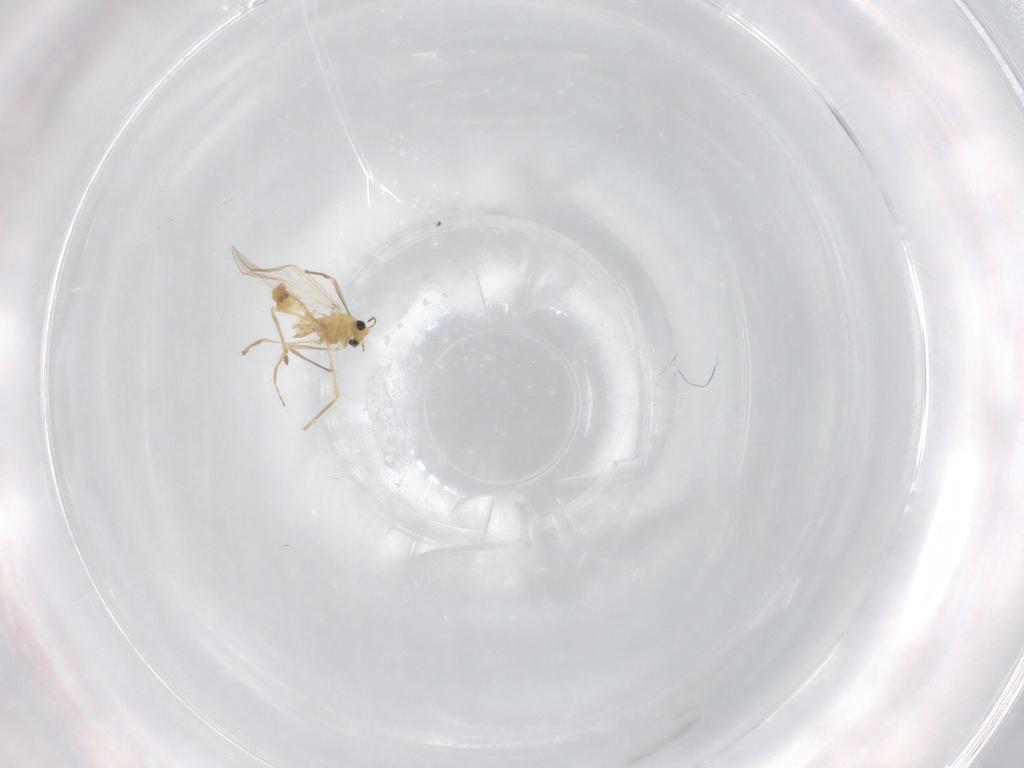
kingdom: Animalia
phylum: Arthropoda
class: Insecta
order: Diptera
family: Chironomidae
